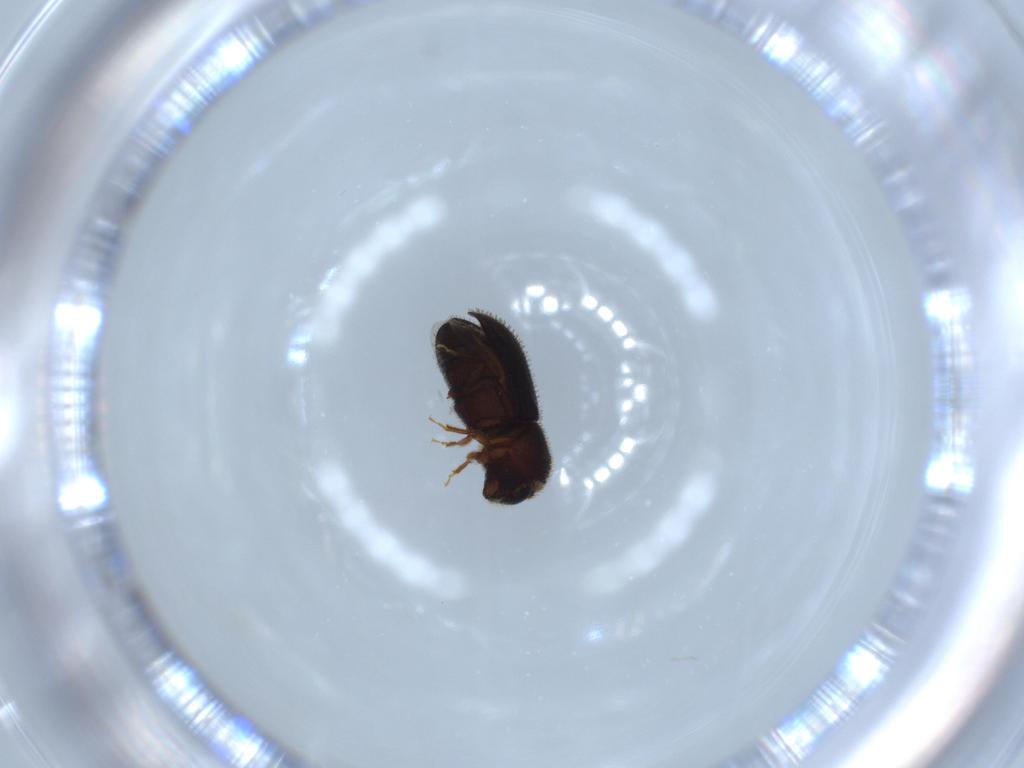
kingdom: Animalia
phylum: Arthropoda
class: Insecta
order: Coleoptera
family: Curculionidae
